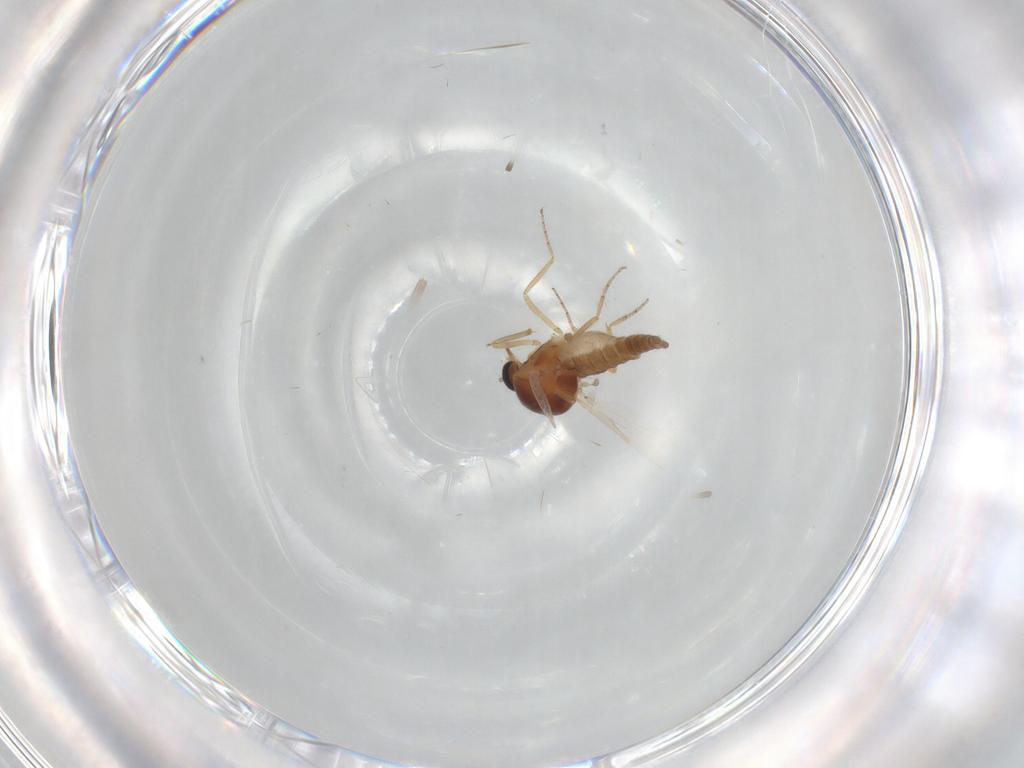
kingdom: Animalia
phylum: Arthropoda
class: Insecta
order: Diptera
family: Ceratopogonidae
